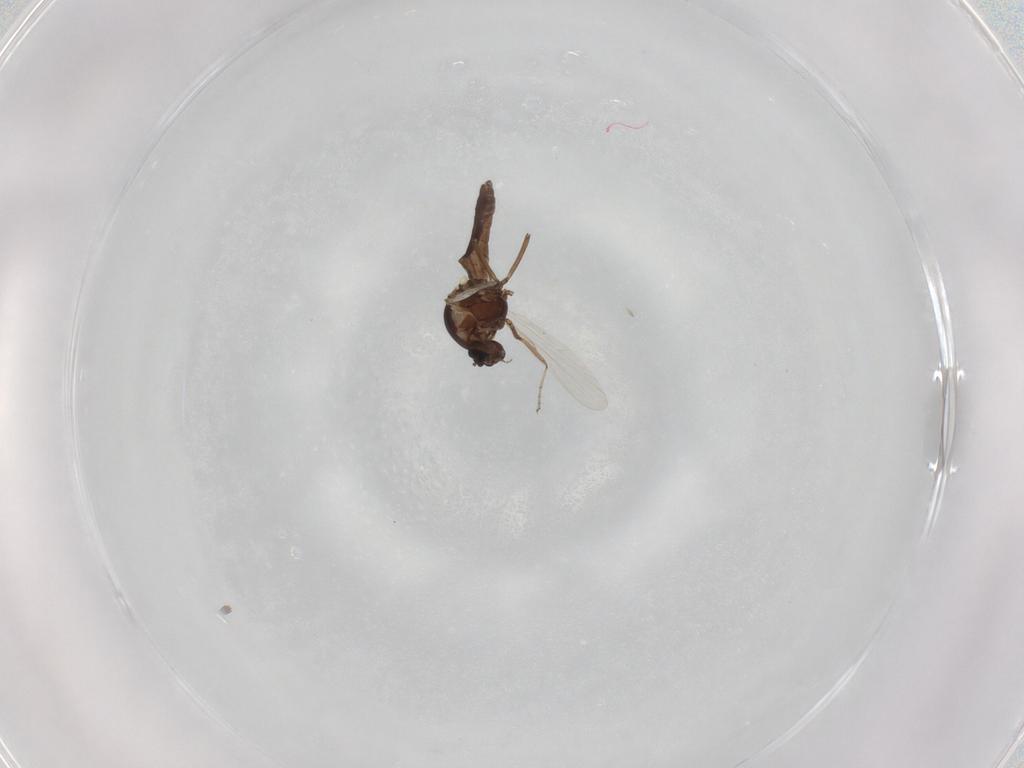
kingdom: Animalia
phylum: Arthropoda
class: Insecta
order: Diptera
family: Ceratopogonidae
